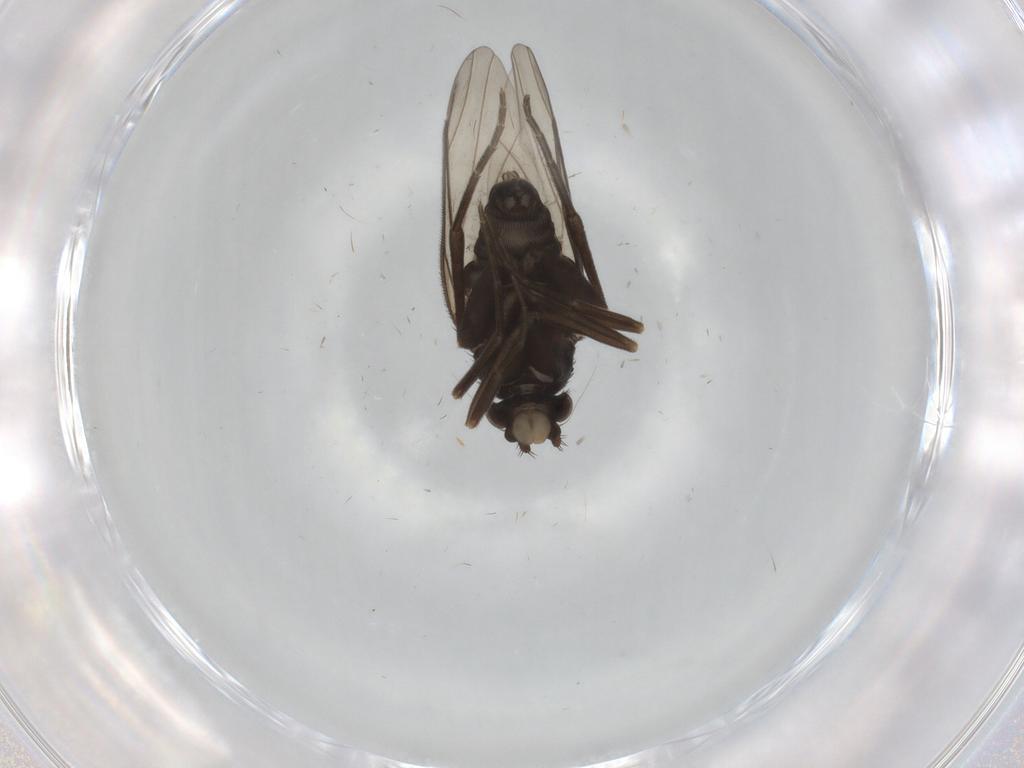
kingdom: Animalia
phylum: Arthropoda
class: Insecta
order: Diptera
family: Phoridae
